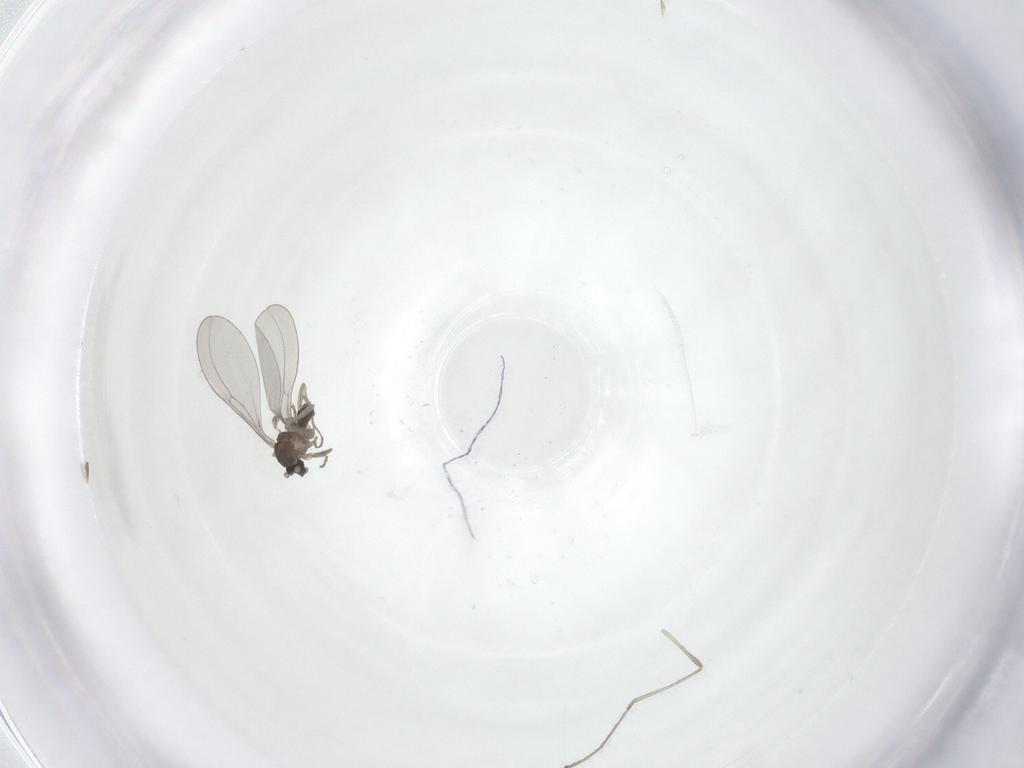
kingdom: Animalia
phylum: Arthropoda
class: Insecta
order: Diptera
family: Cecidomyiidae
